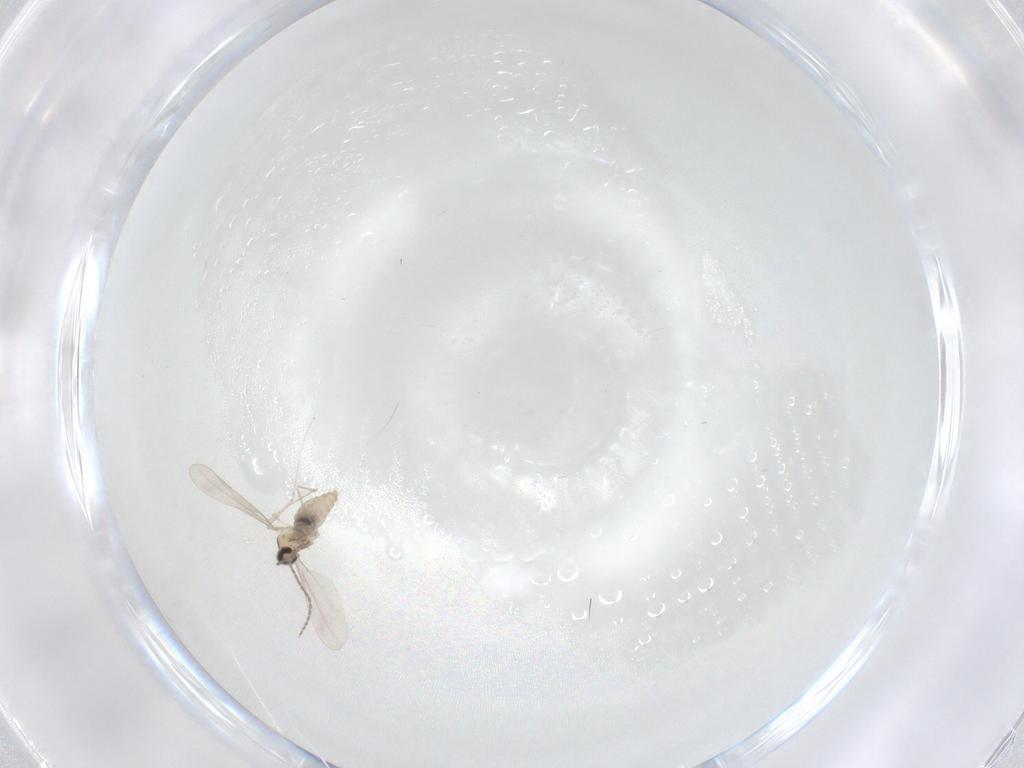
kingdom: Animalia
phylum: Arthropoda
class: Insecta
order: Diptera
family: Cecidomyiidae
